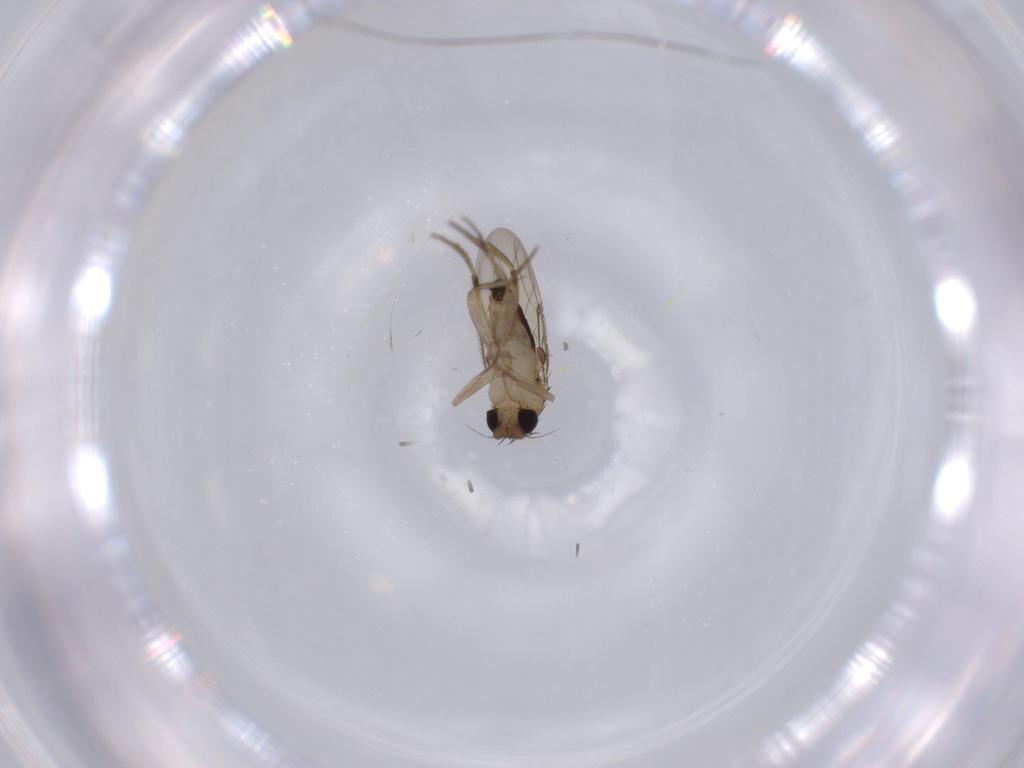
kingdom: Animalia
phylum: Arthropoda
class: Insecta
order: Diptera
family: Phoridae
